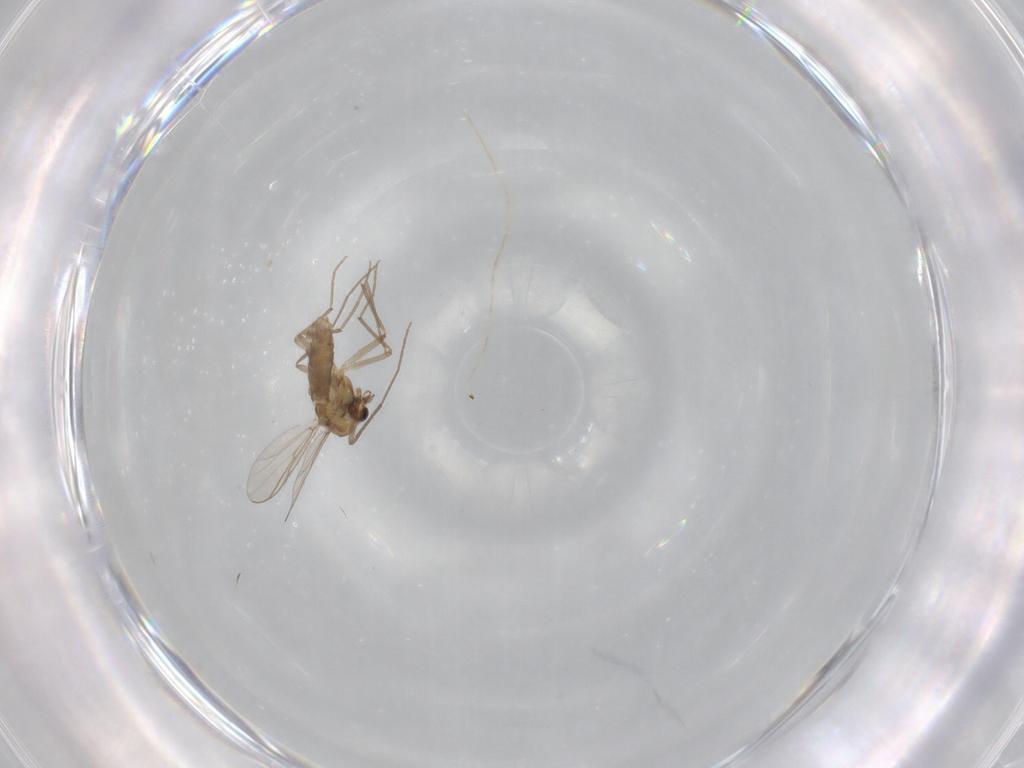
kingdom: Animalia
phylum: Arthropoda
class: Insecta
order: Diptera
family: Chironomidae
